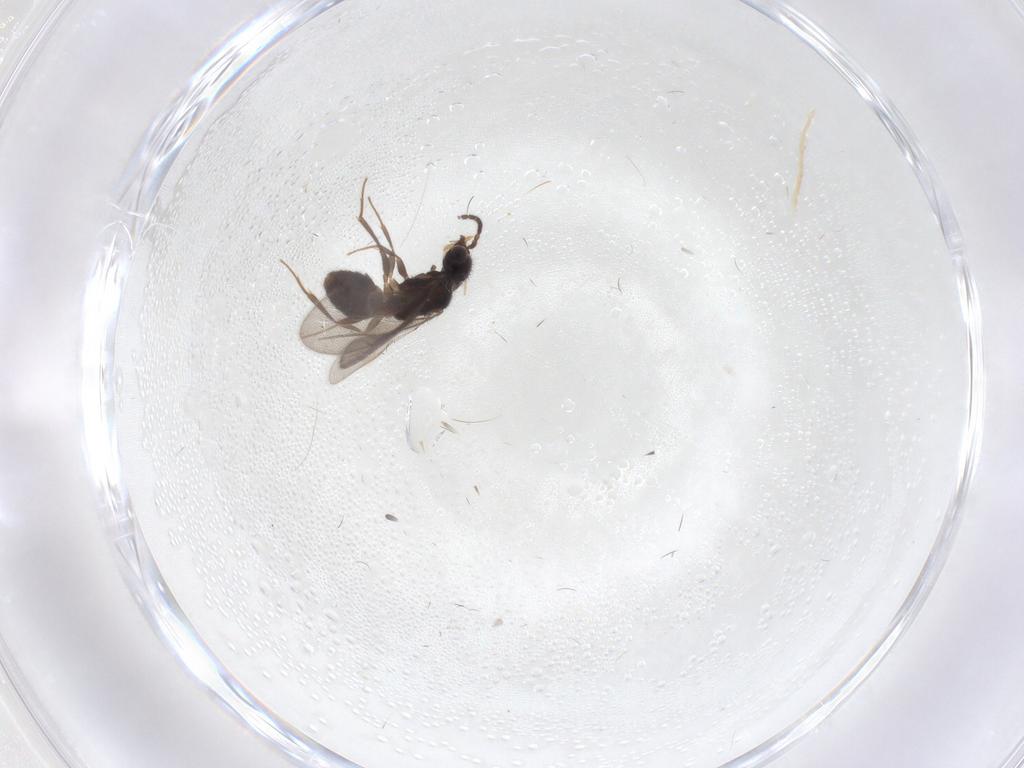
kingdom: Animalia
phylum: Arthropoda
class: Insecta
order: Hymenoptera
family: Bethylidae
